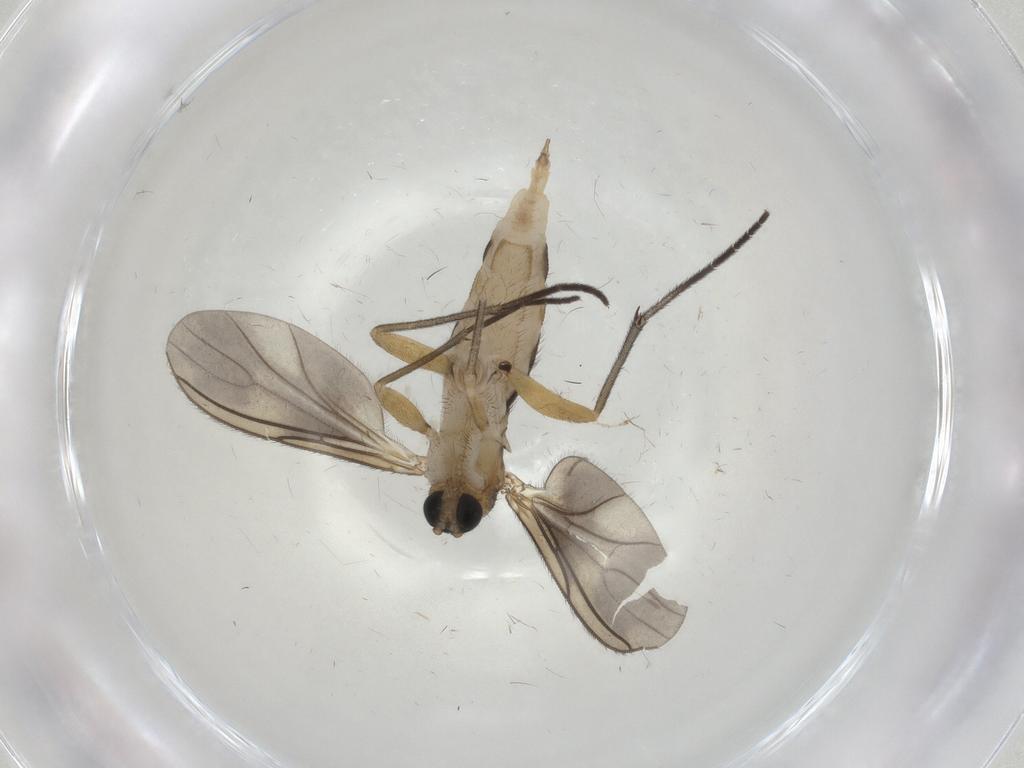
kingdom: Animalia
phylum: Arthropoda
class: Insecta
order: Diptera
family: Sciaridae
